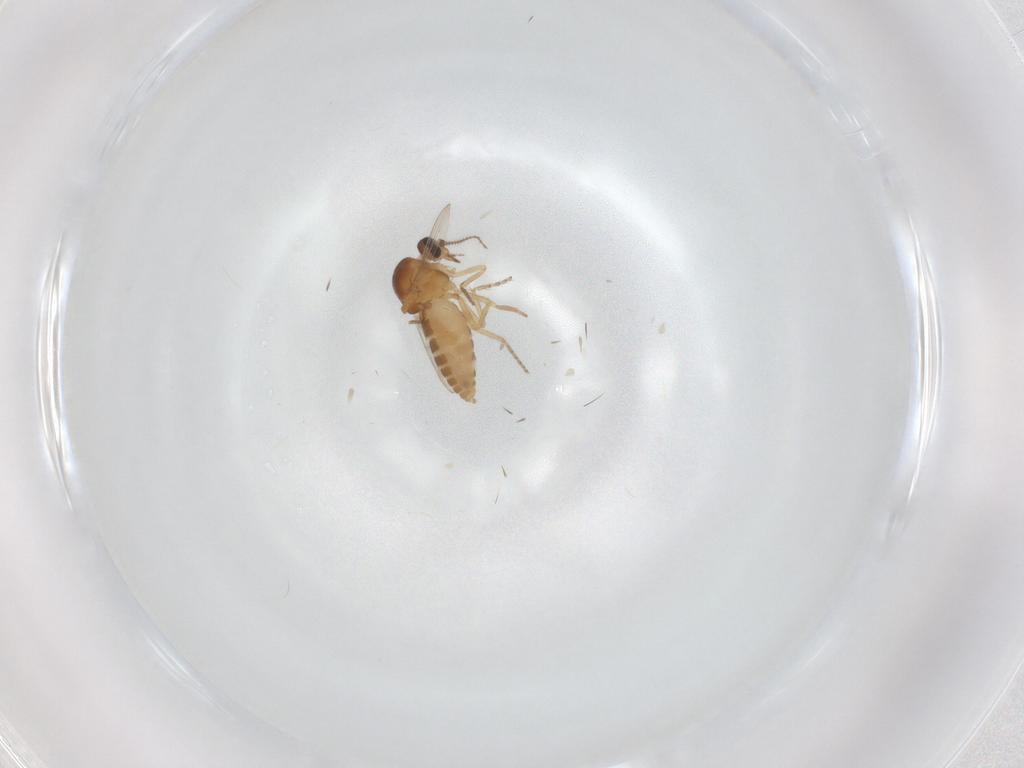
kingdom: Animalia
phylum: Arthropoda
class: Insecta
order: Diptera
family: Ceratopogonidae
